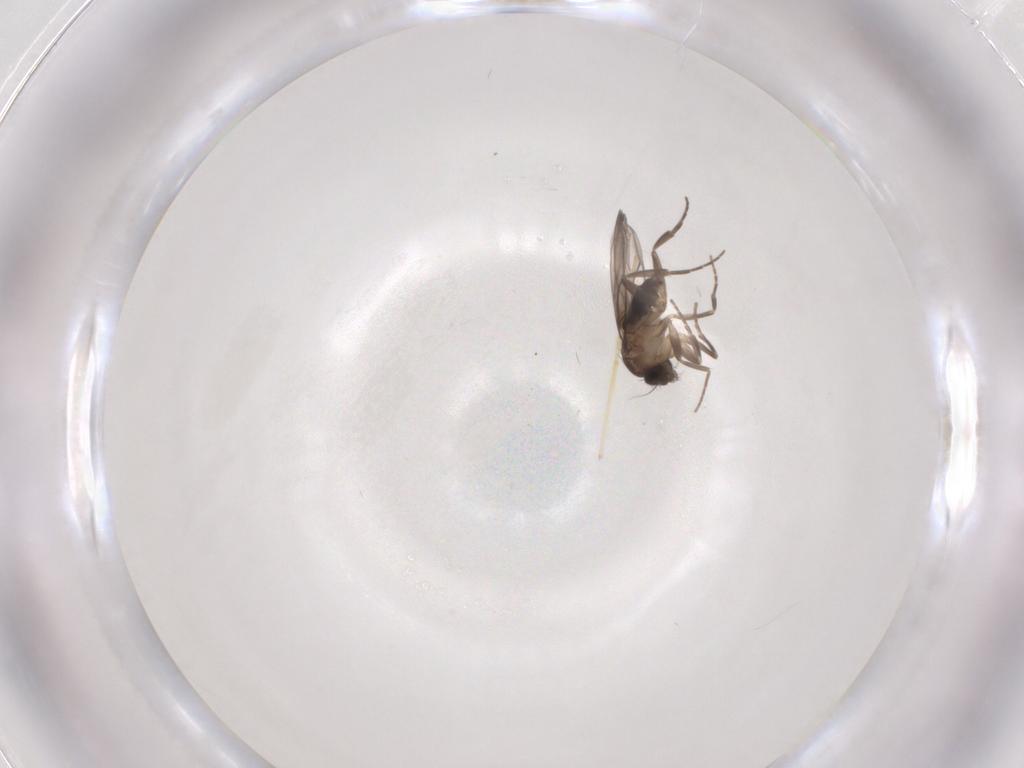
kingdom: Animalia
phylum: Arthropoda
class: Insecta
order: Diptera
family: Chironomidae
